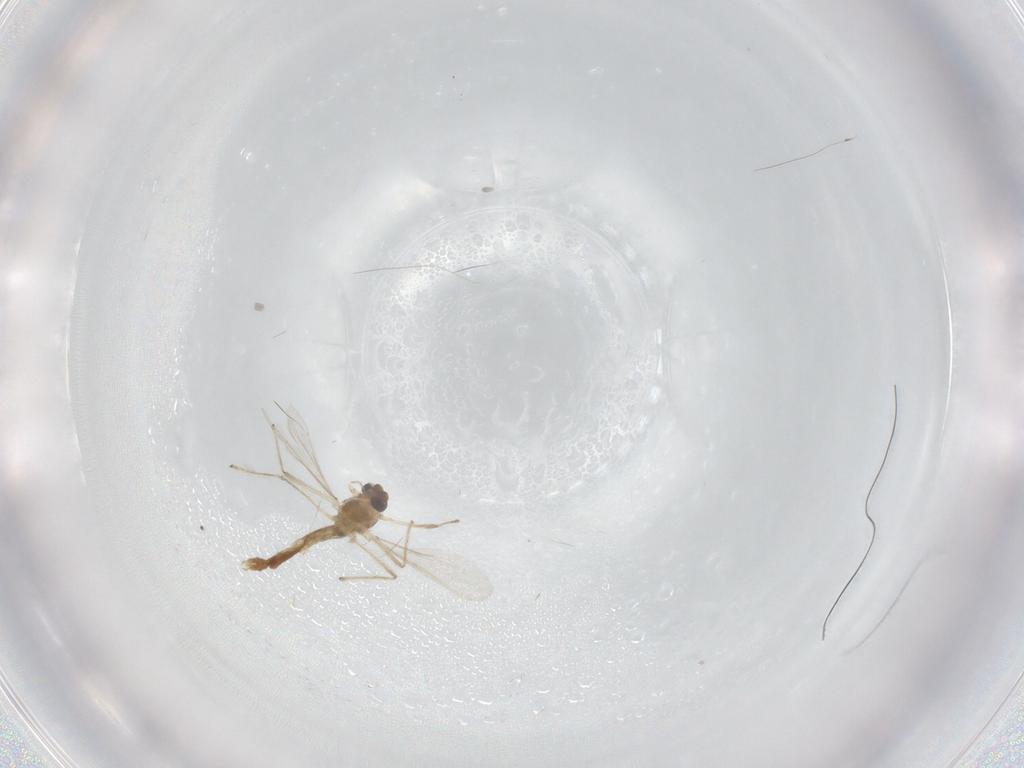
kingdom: Animalia
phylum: Arthropoda
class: Insecta
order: Diptera
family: Chironomidae
